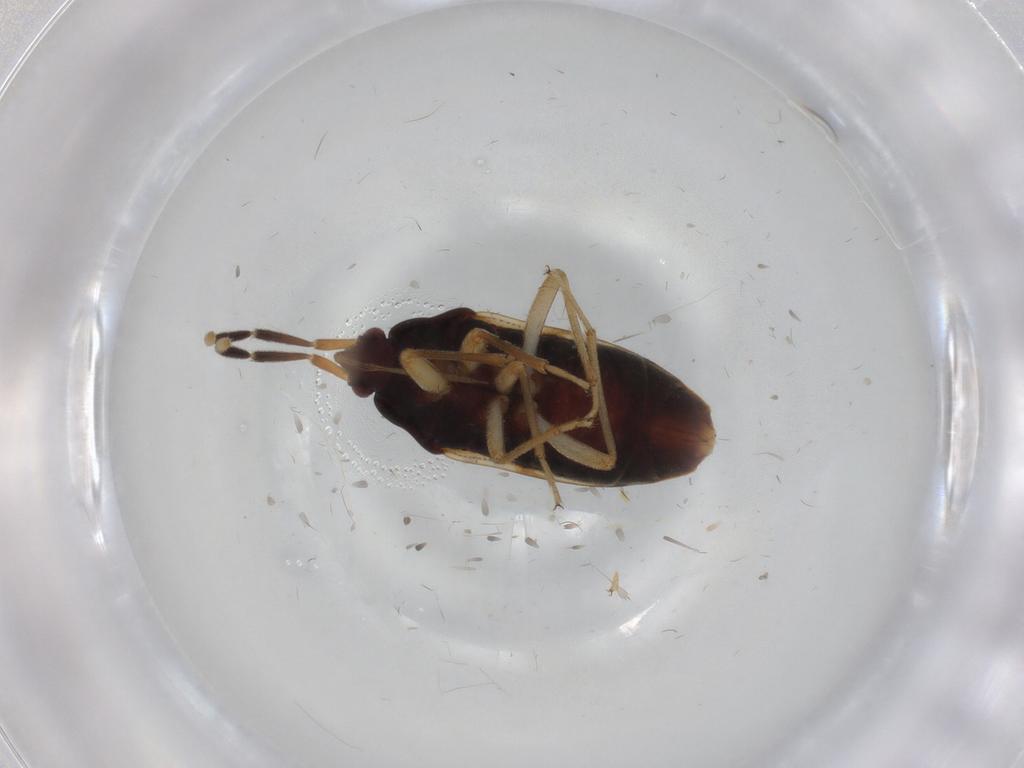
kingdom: Animalia
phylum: Arthropoda
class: Insecta
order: Hemiptera
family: Rhyparochromidae
